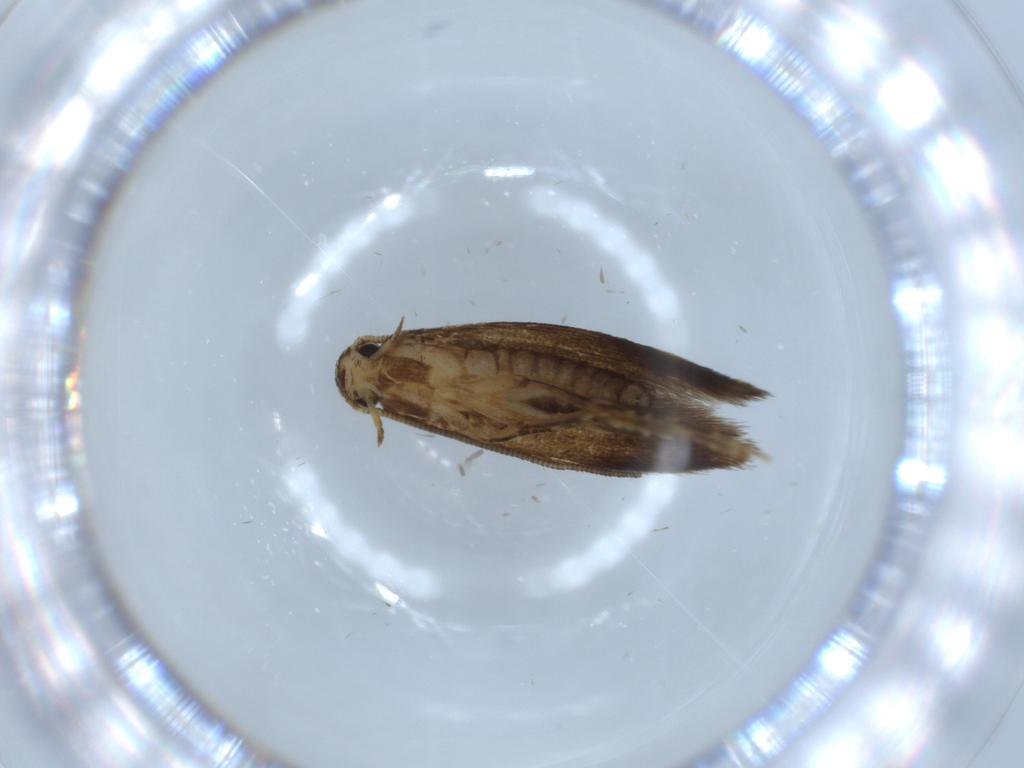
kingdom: Animalia
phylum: Arthropoda
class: Insecta
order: Lepidoptera
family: Tineidae
